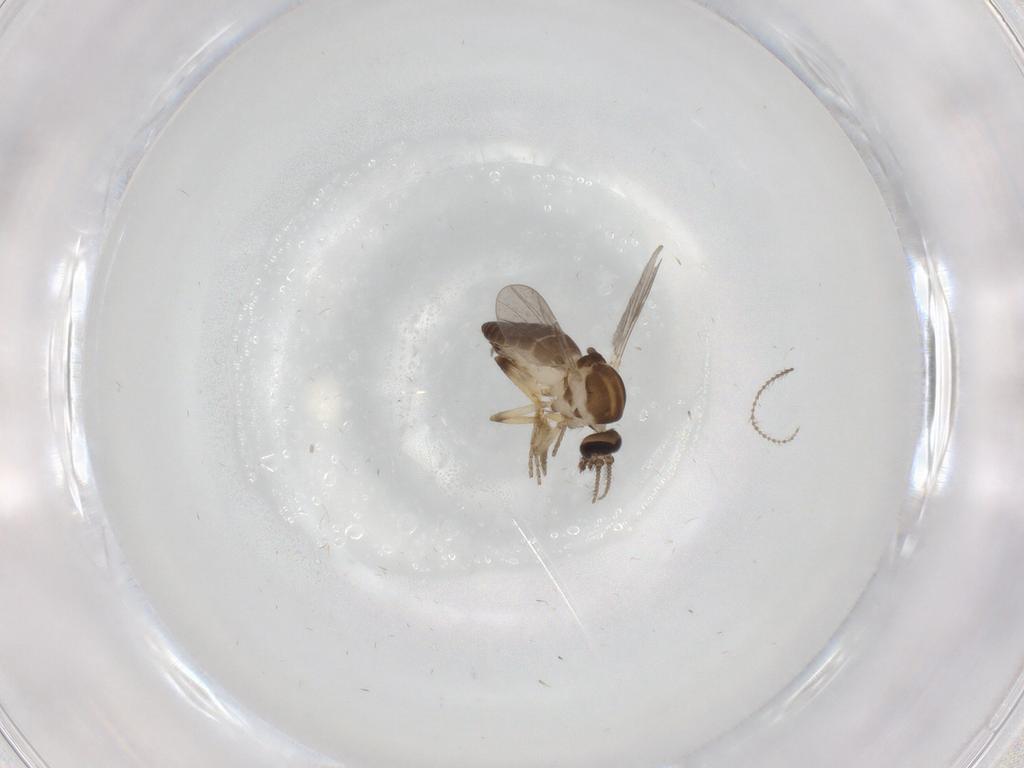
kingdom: Animalia
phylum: Arthropoda
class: Insecta
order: Diptera
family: Ceratopogonidae
